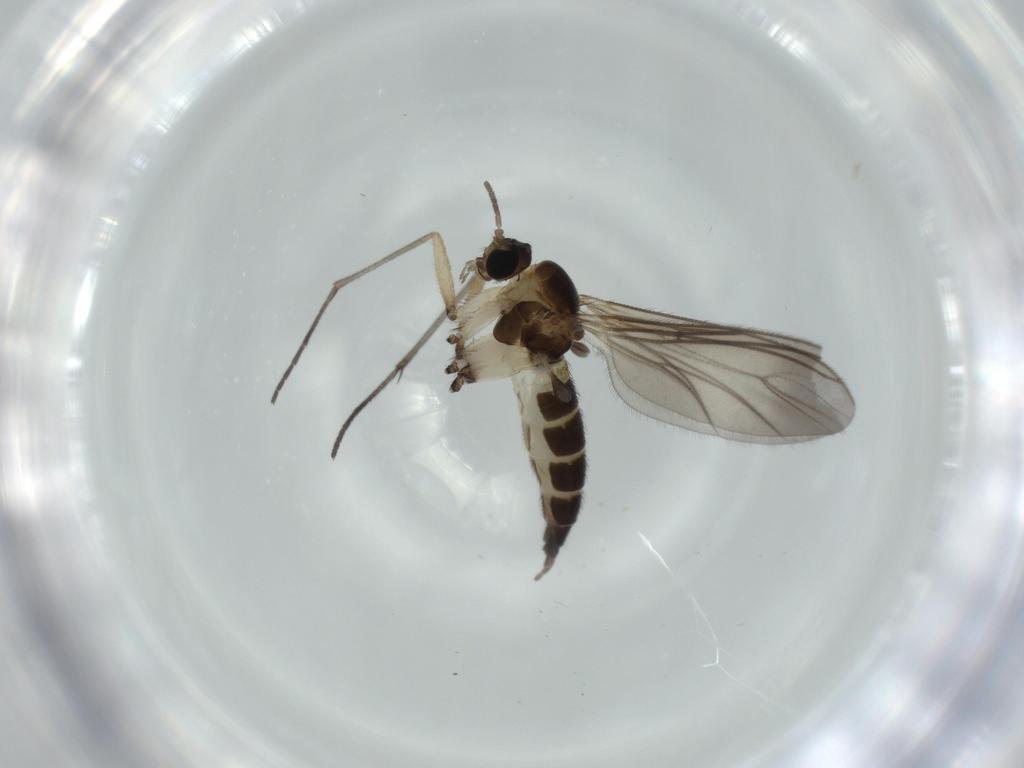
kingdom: Animalia
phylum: Arthropoda
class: Insecta
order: Diptera
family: Sciaridae
